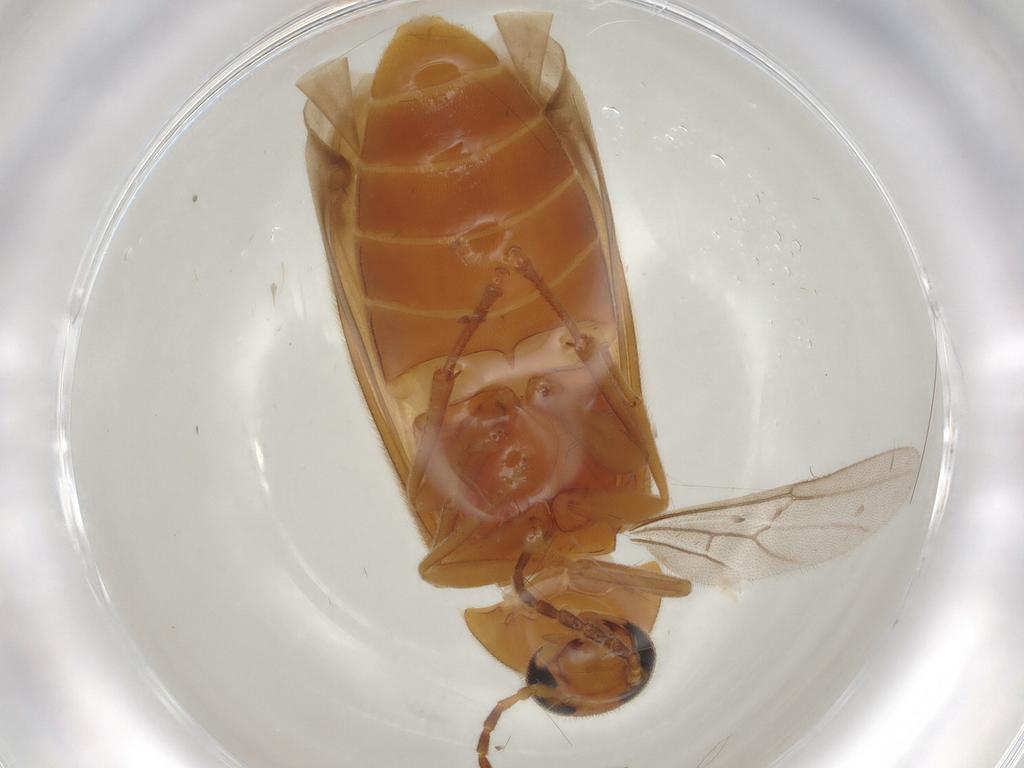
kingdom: Animalia
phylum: Arthropoda
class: Insecta
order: Coleoptera
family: Scraptiidae
